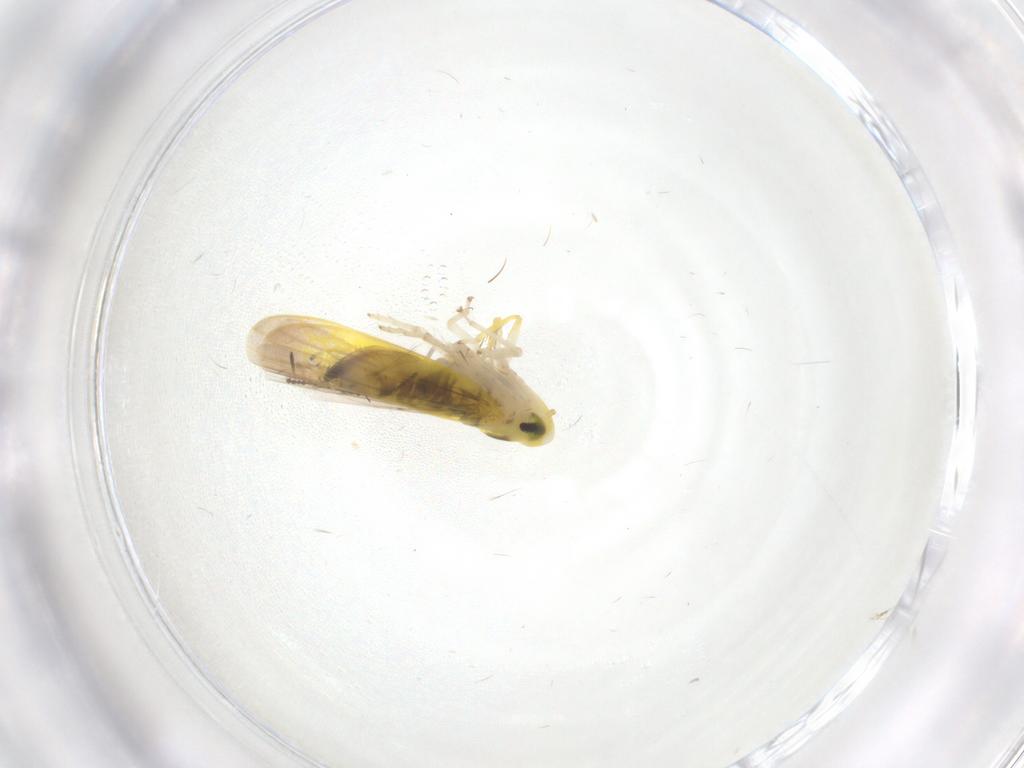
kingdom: Animalia
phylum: Arthropoda
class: Insecta
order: Hemiptera
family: Cicadellidae
